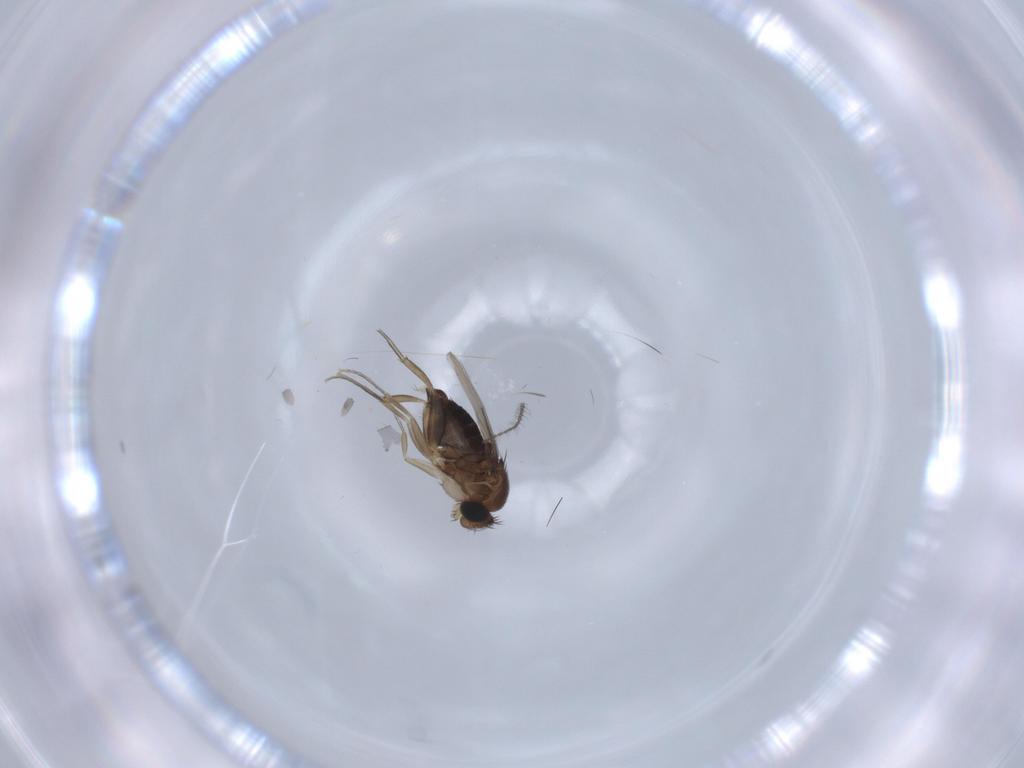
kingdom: Animalia
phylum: Arthropoda
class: Insecta
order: Diptera
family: Phoridae
